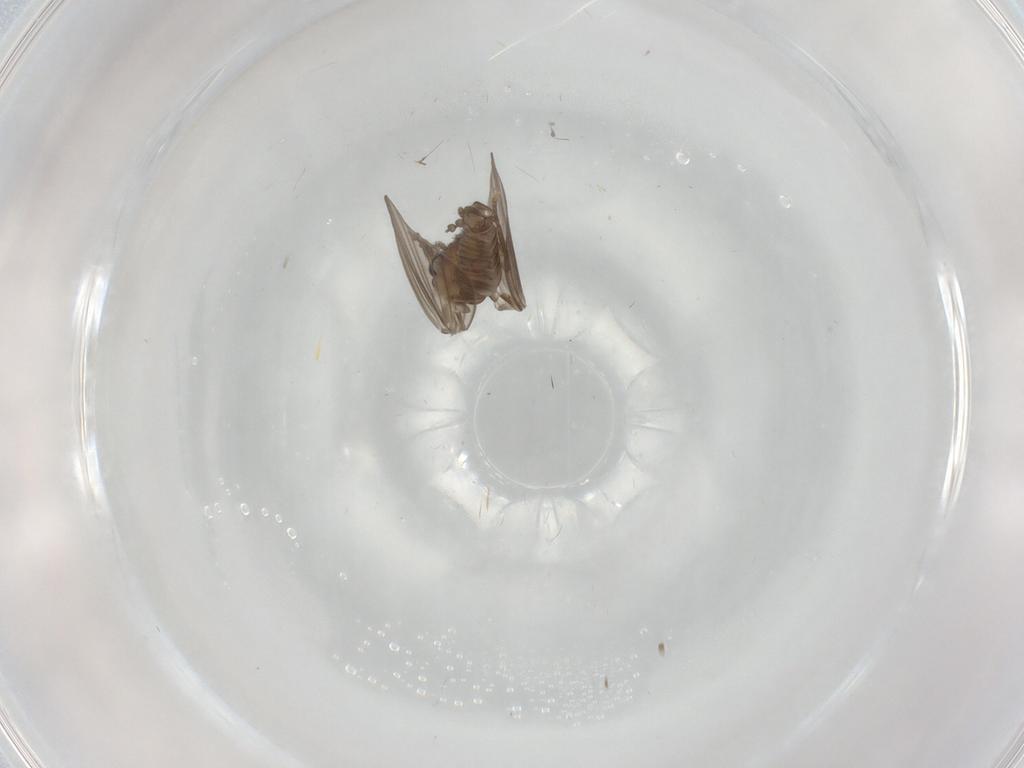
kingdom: Animalia
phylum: Arthropoda
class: Insecta
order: Diptera
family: Psychodidae
